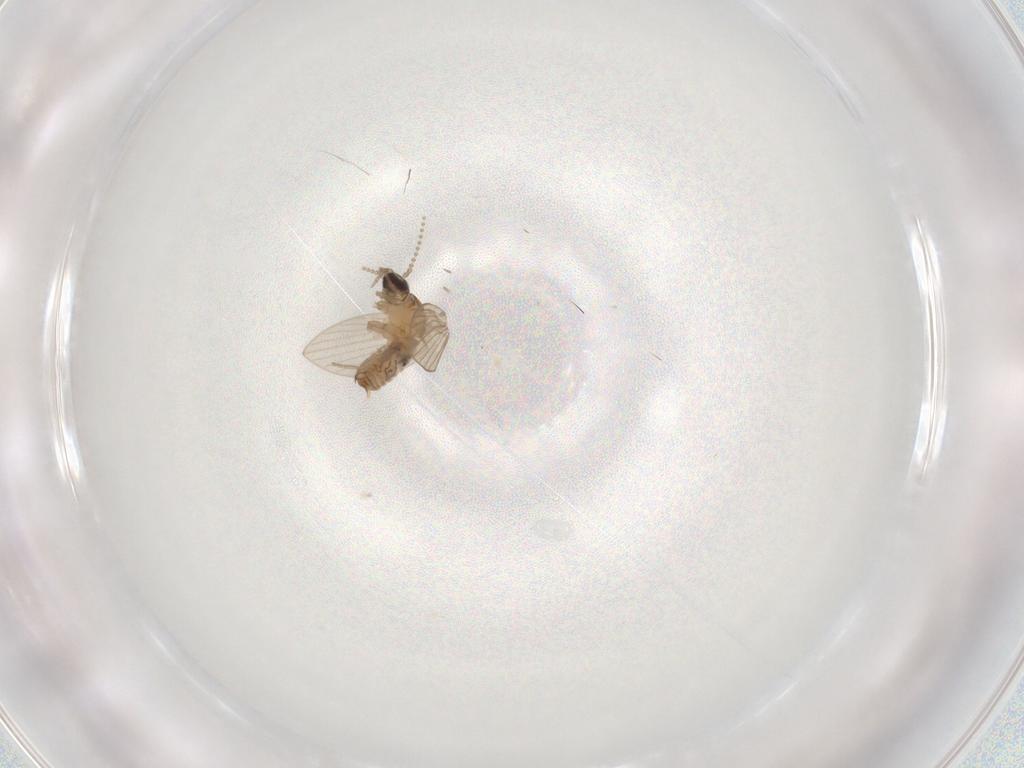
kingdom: Animalia
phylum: Arthropoda
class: Insecta
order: Diptera
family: Psychodidae
